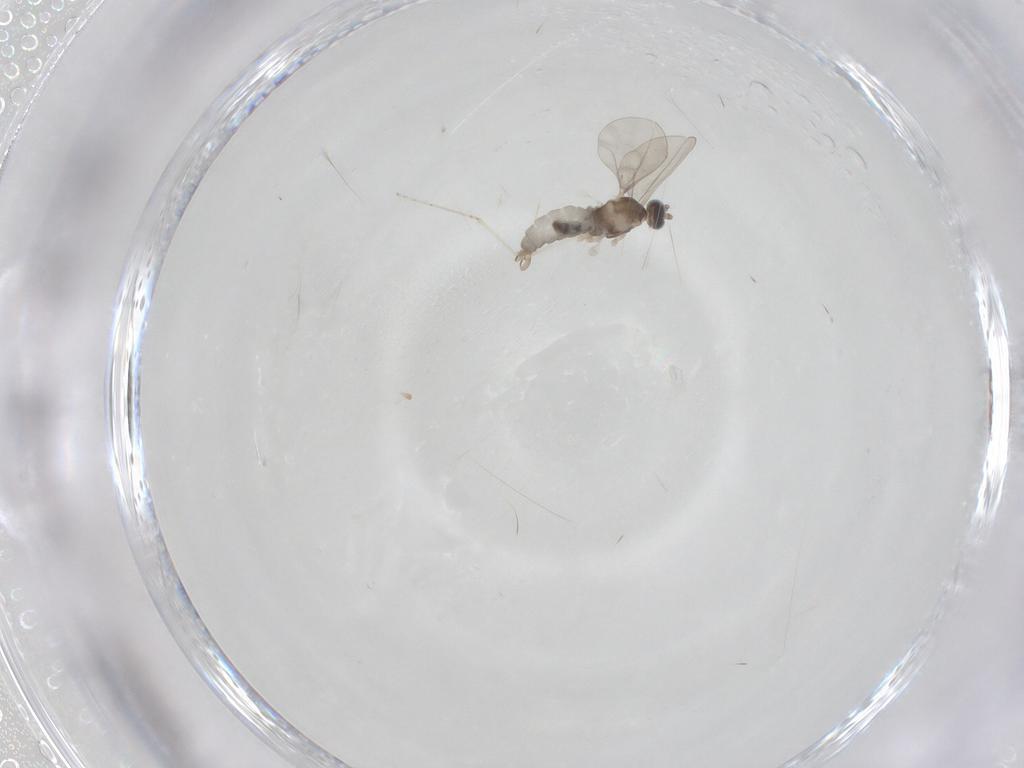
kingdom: Animalia
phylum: Arthropoda
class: Insecta
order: Diptera
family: Cecidomyiidae
